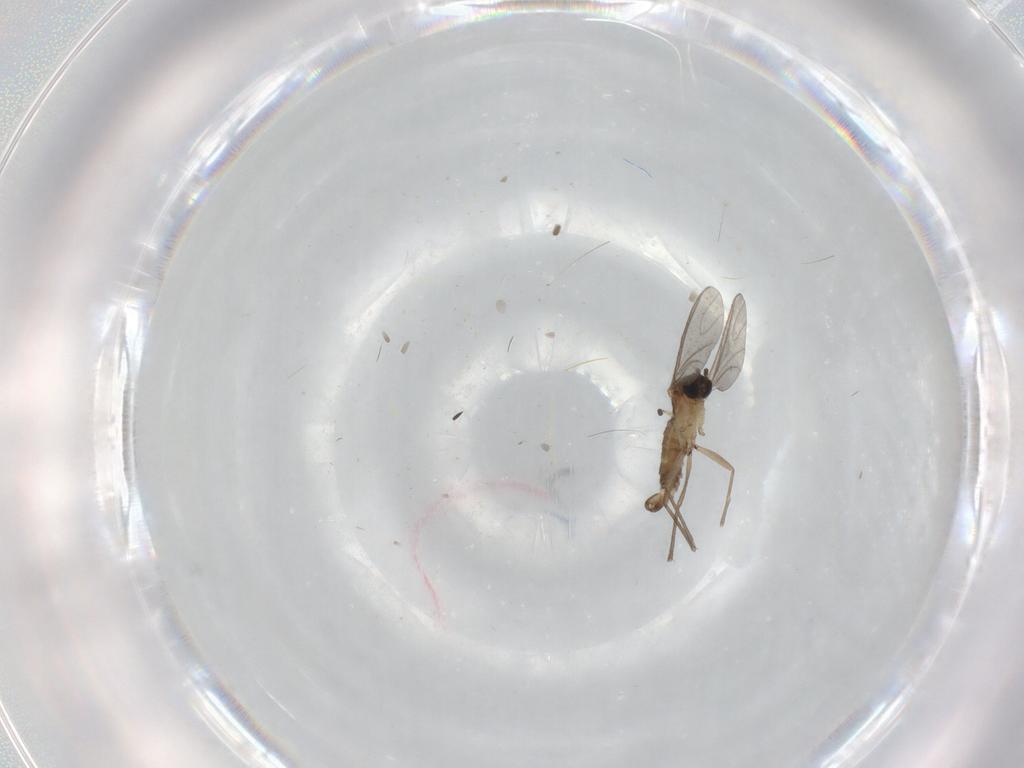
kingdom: Animalia
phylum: Arthropoda
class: Insecta
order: Diptera
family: Sciaridae
